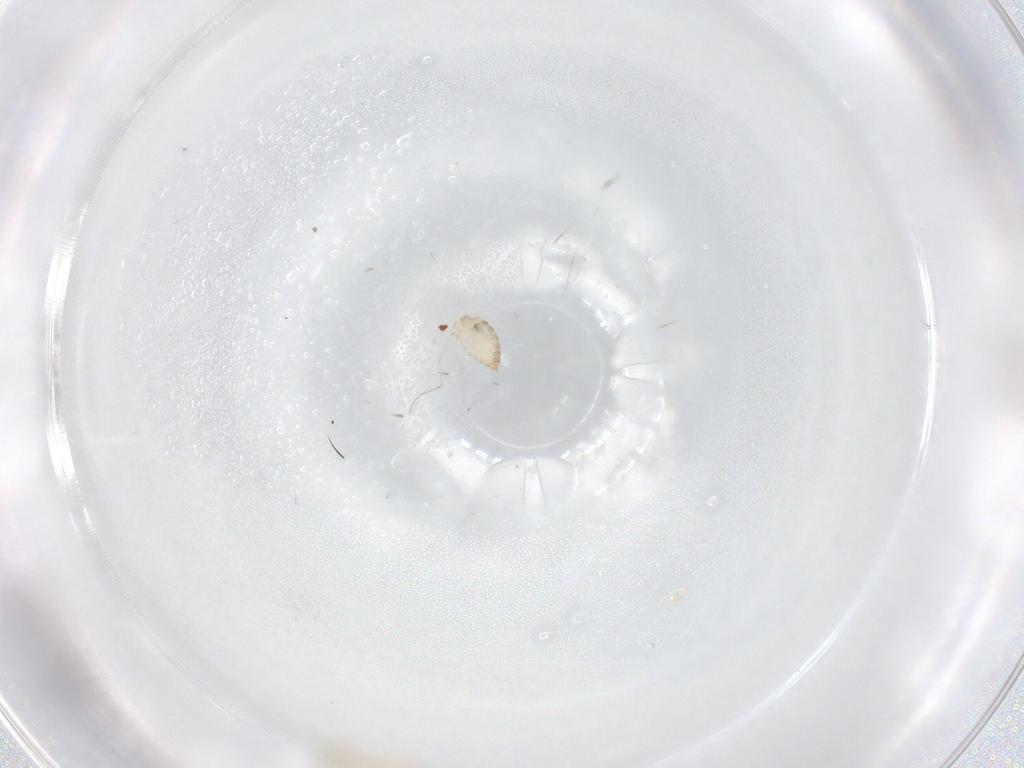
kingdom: Animalia
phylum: Arthropoda
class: Insecta
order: Diptera
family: Cecidomyiidae
